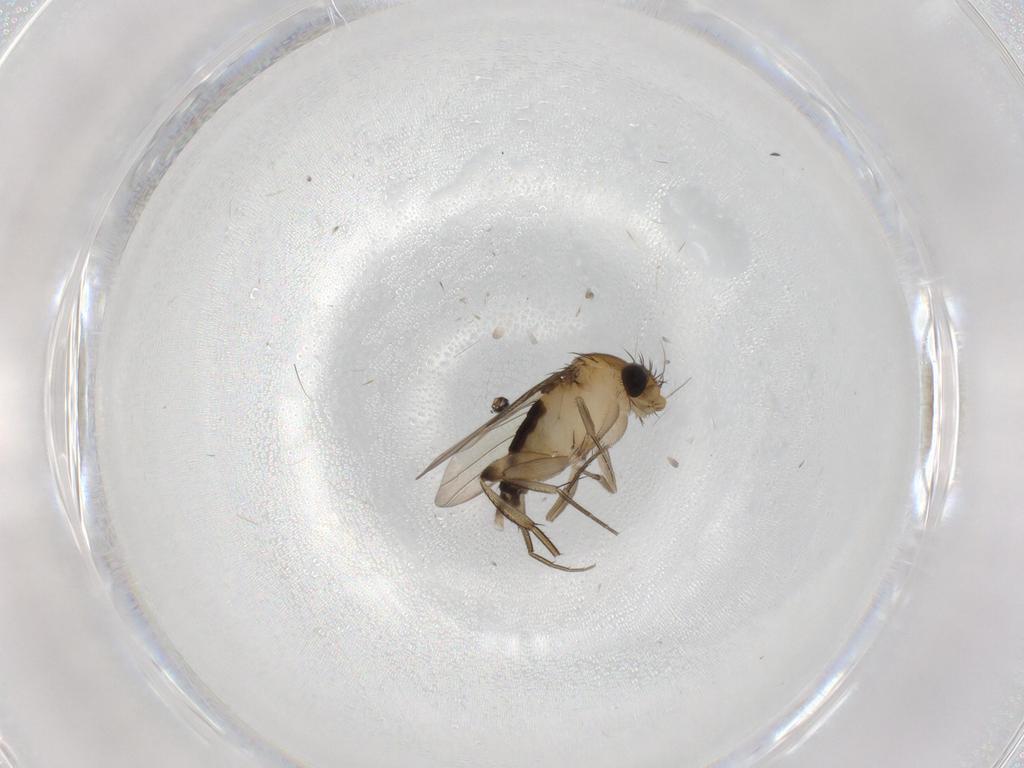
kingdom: Animalia
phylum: Arthropoda
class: Insecta
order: Diptera
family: Phoridae
